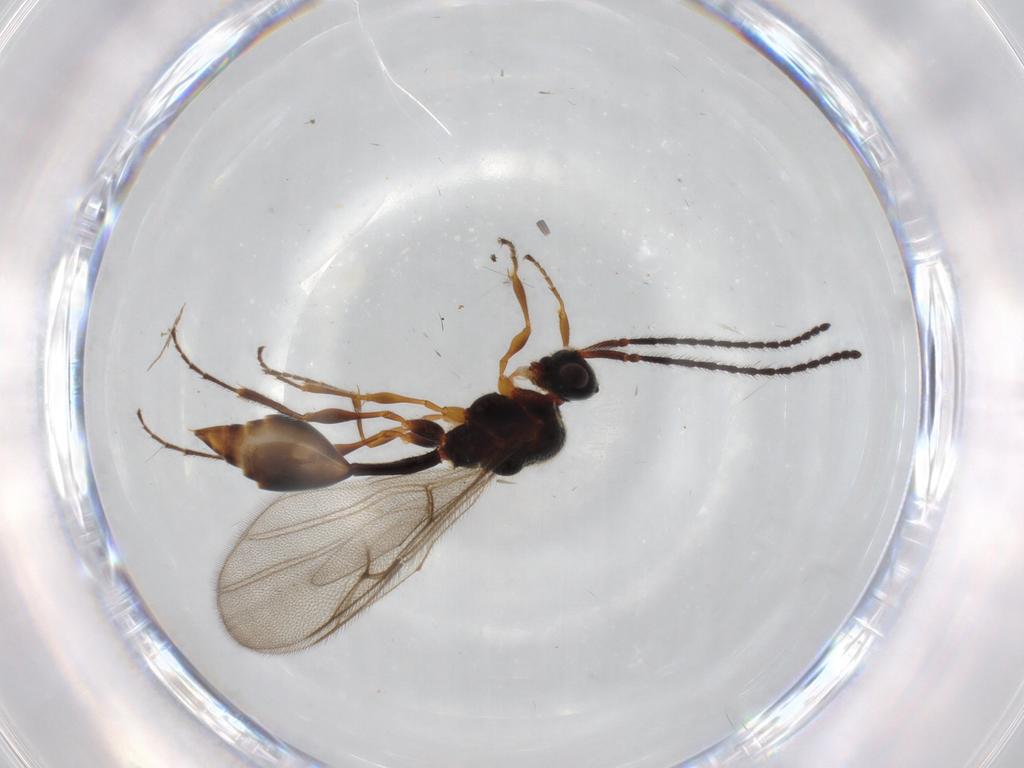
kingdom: Animalia
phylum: Arthropoda
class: Insecta
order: Hymenoptera
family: Diapriidae
